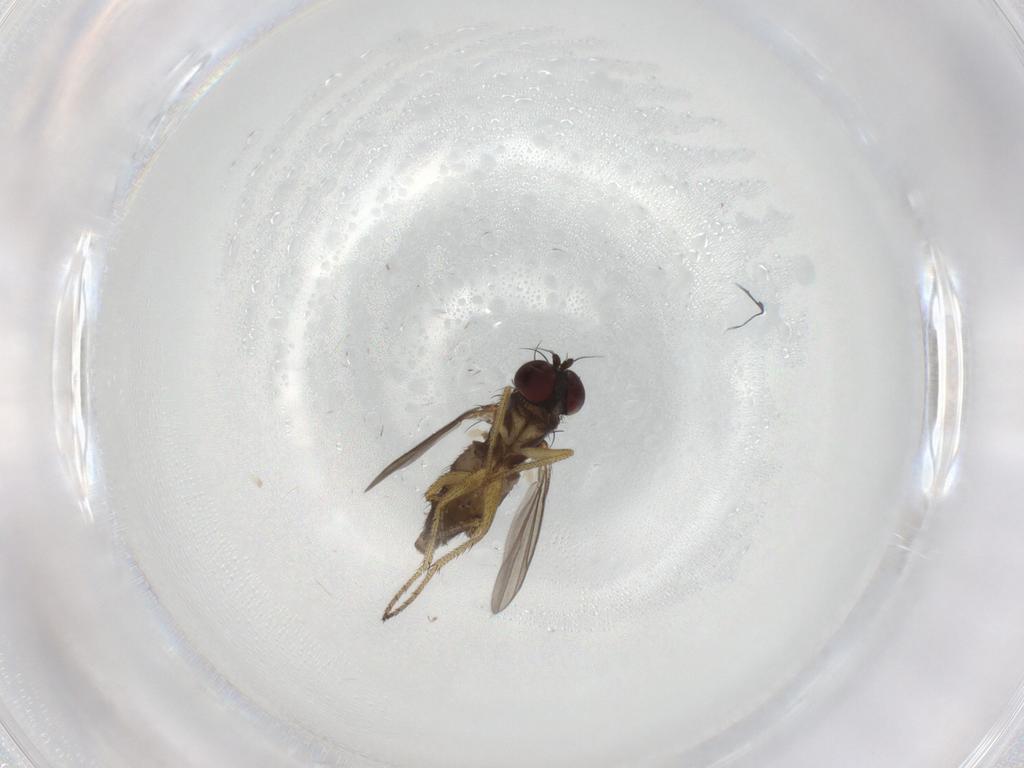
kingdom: Animalia
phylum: Arthropoda
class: Insecta
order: Diptera
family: Dolichopodidae
